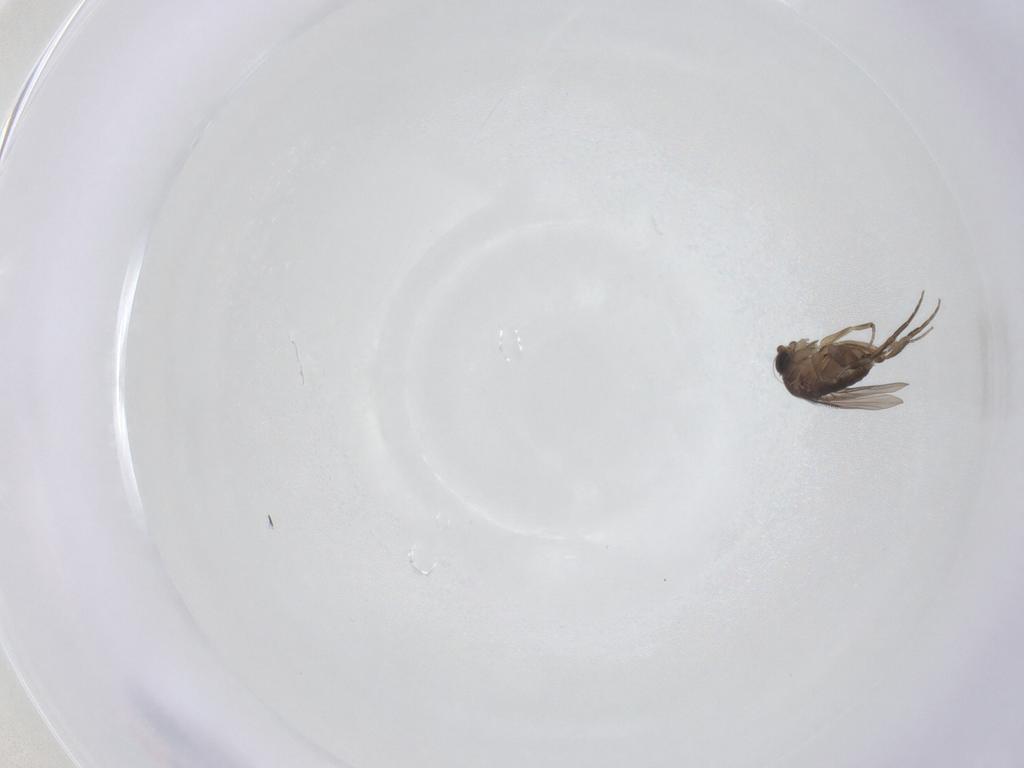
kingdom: Animalia
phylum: Arthropoda
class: Insecta
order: Diptera
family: Phoridae
